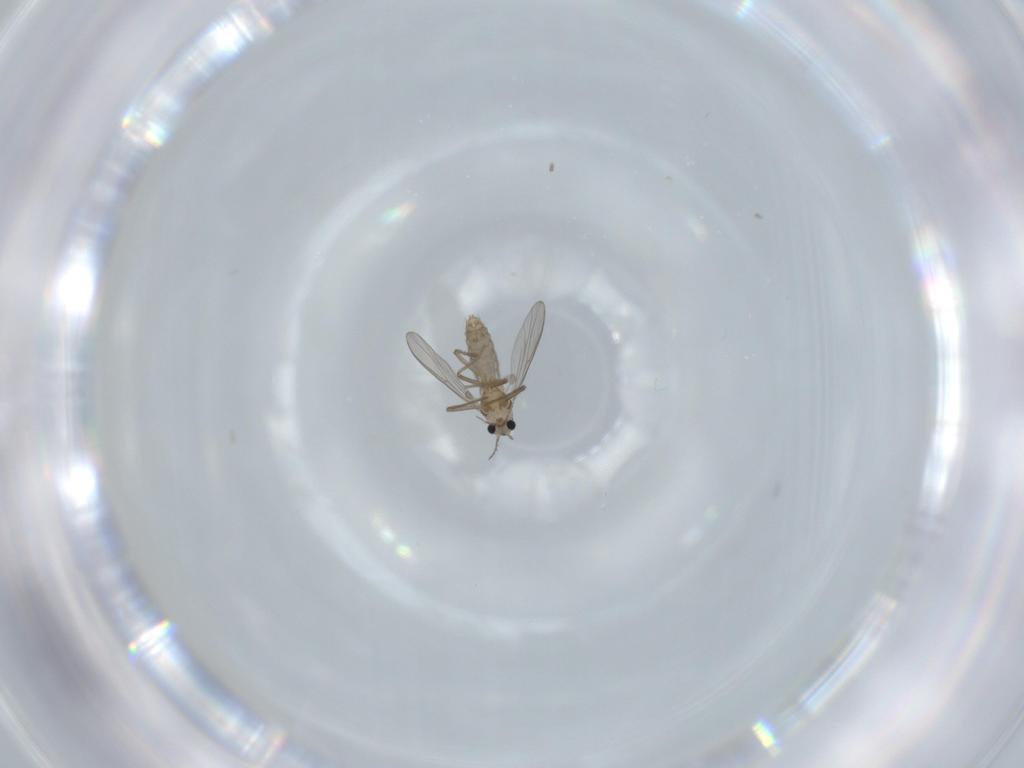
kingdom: Animalia
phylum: Arthropoda
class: Insecta
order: Diptera
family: Chironomidae
